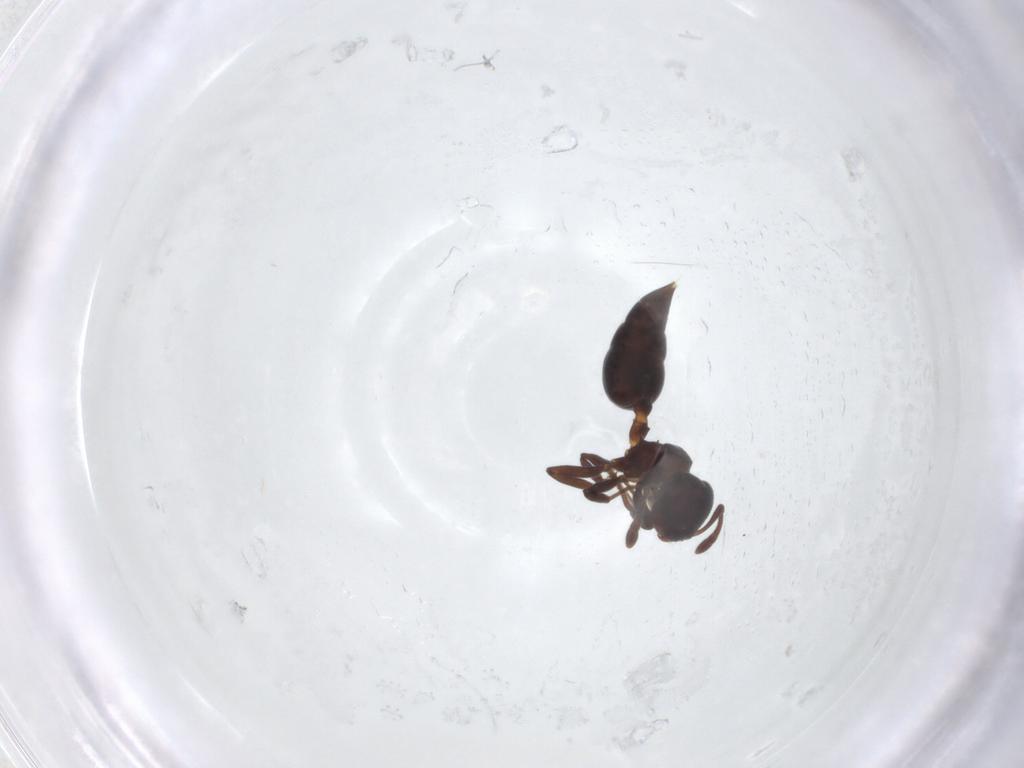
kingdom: Animalia
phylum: Arthropoda
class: Insecta
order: Hymenoptera
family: Formicidae
